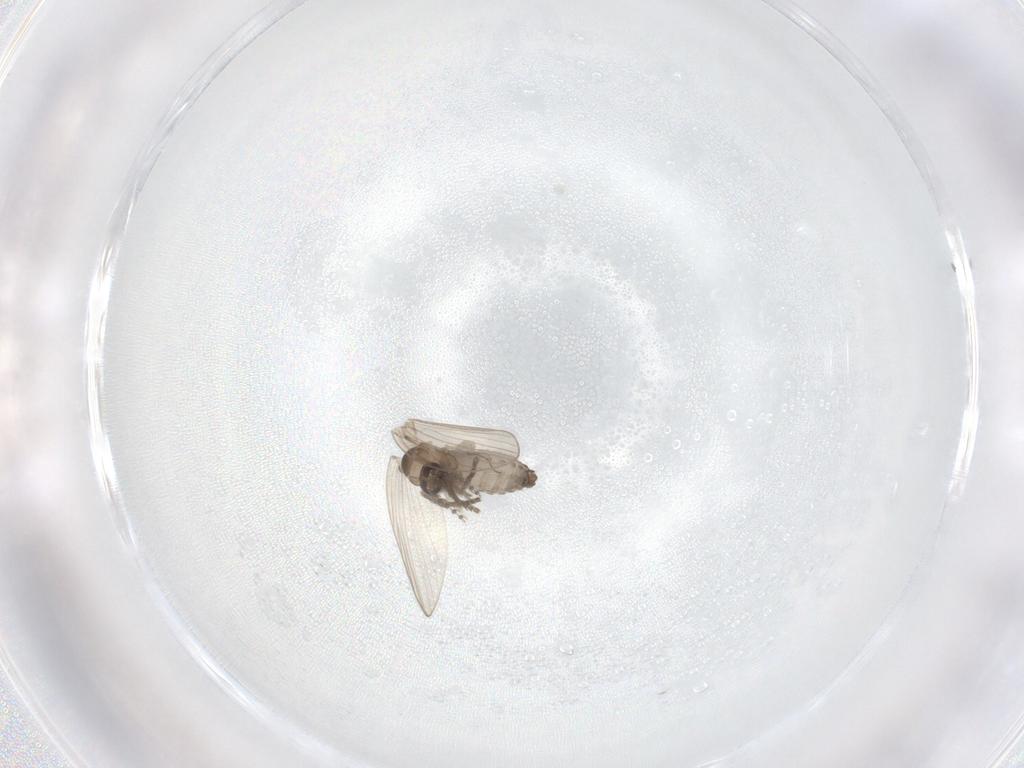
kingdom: Animalia
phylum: Arthropoda
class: Insecta
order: Diptera
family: Psychodidae
